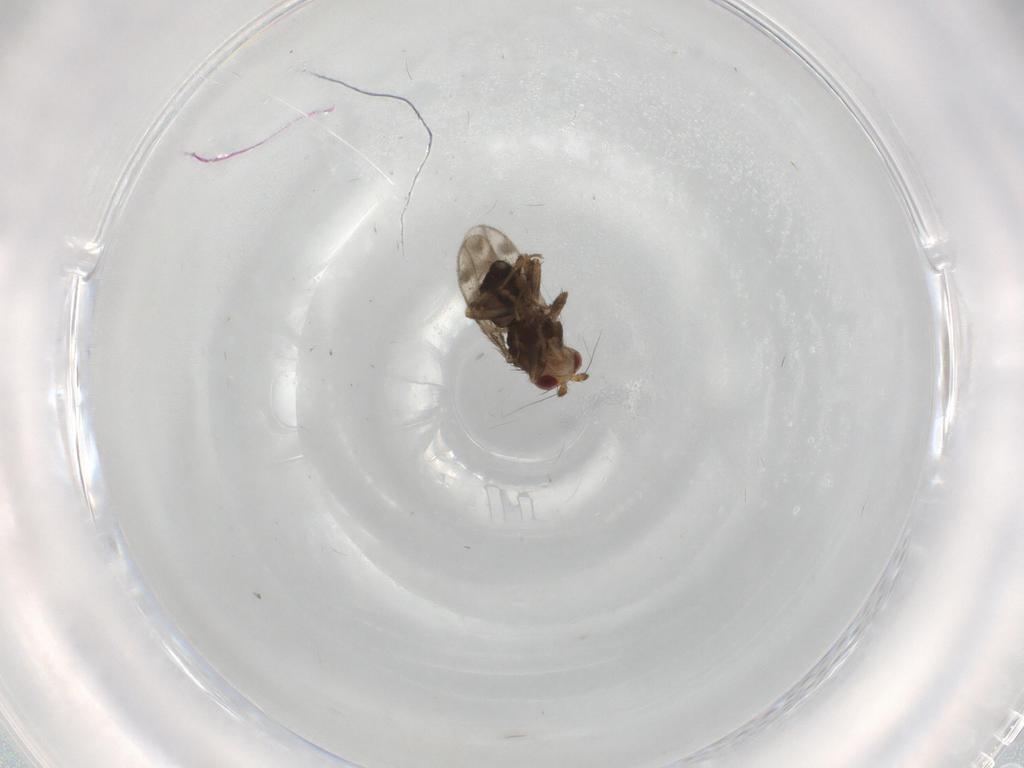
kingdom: Animalia
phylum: Arthropoda
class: Insecta
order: Diptera
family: Sphaeroceridae
